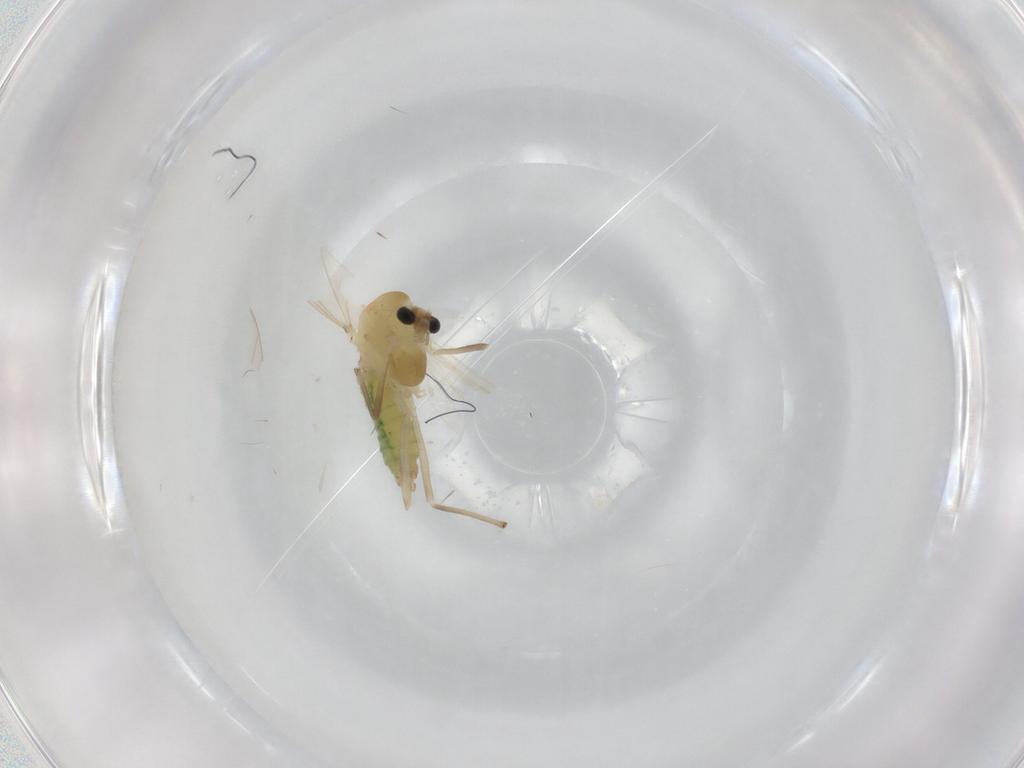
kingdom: Animalia
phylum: Arthropoda
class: Insecta
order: Diptera
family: Chironomidae
